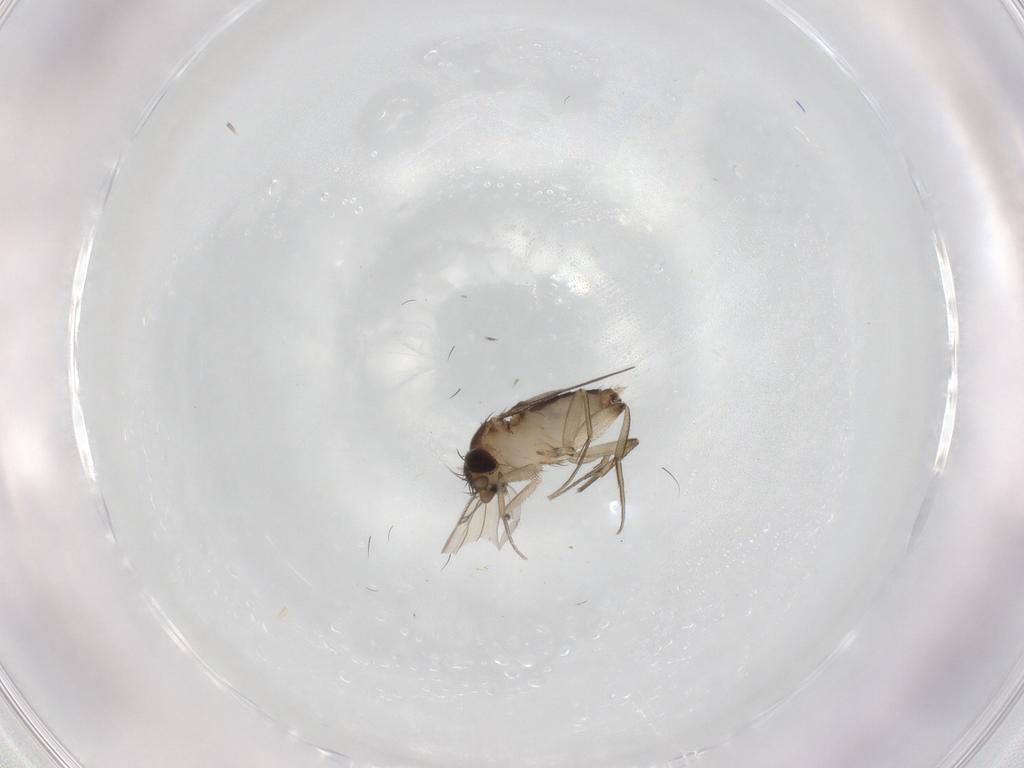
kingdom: Animalia
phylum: Arthropoda
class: Insecta
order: Diptera
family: Phoridae
